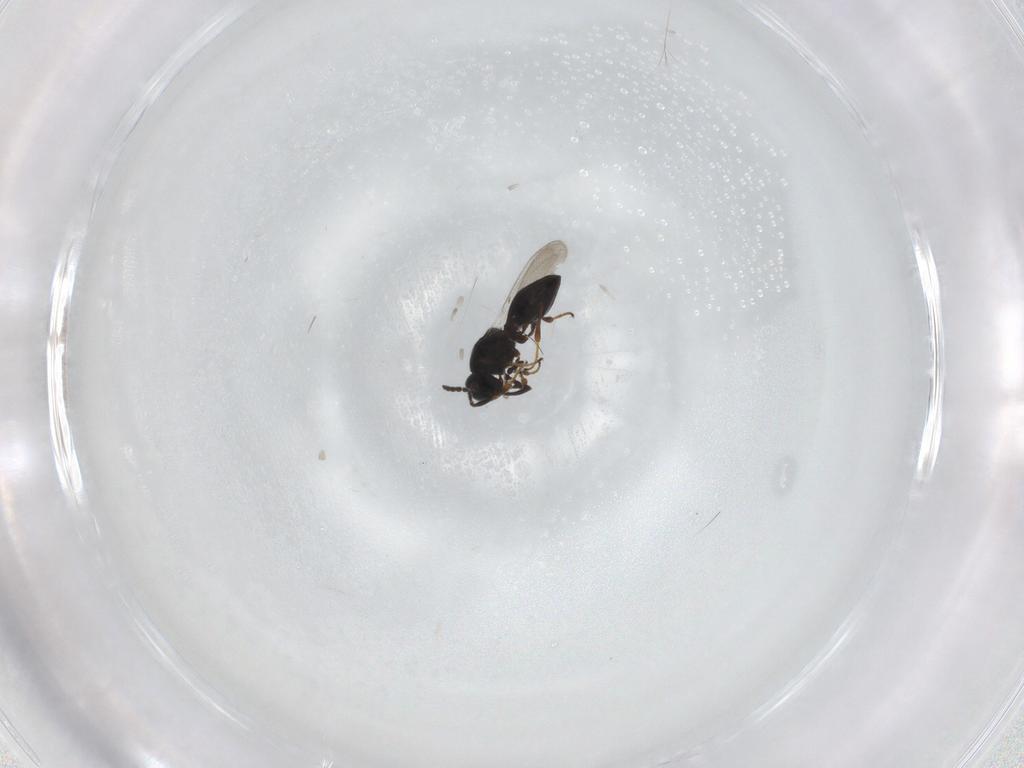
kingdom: Animalia
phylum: Arthropoda
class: Insecta
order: Hymenoptera
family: Platygastridae
